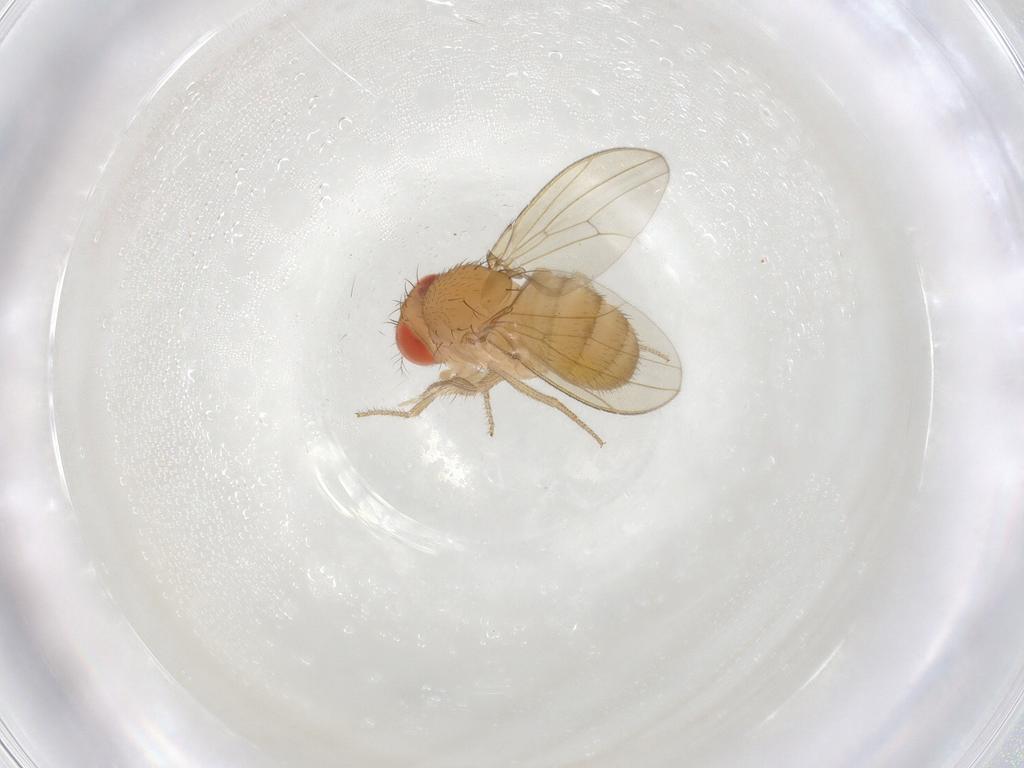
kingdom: Animalia
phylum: Arthropoda
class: Insecta
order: Diptera
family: Drosophilidae
